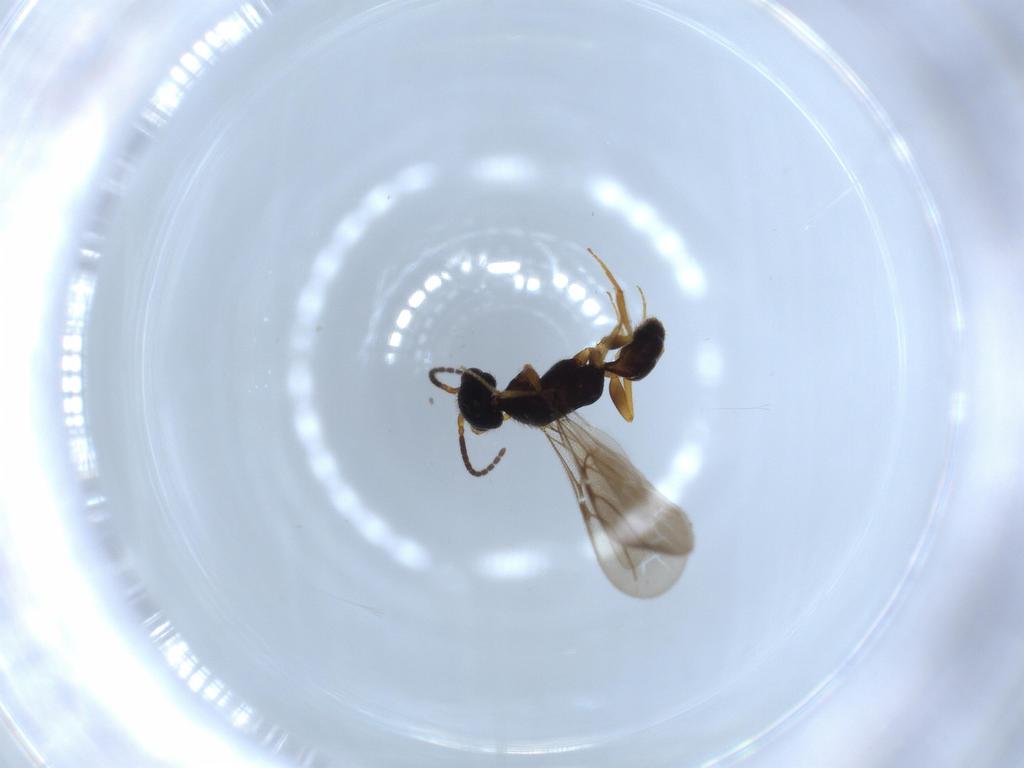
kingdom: Animalia
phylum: Arthropoda
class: Insecta
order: Hymenoptera
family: Bethylidae
